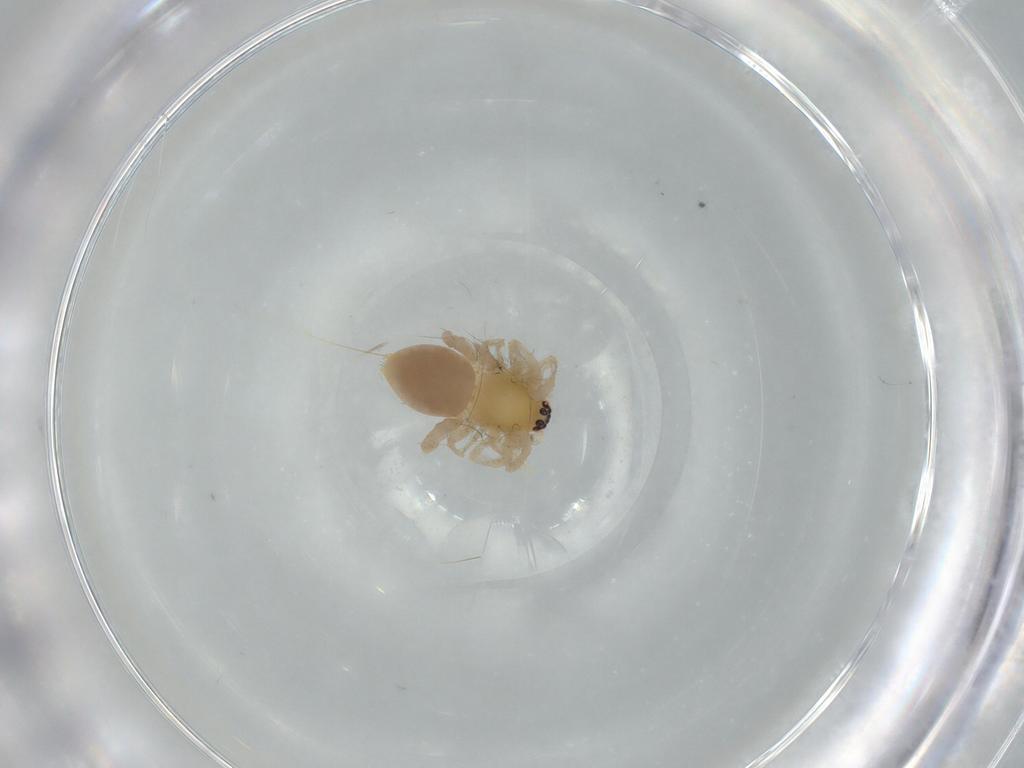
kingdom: Animalia
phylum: Arthropoda
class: Arachnida
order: Araneae
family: Anyphaenidae
